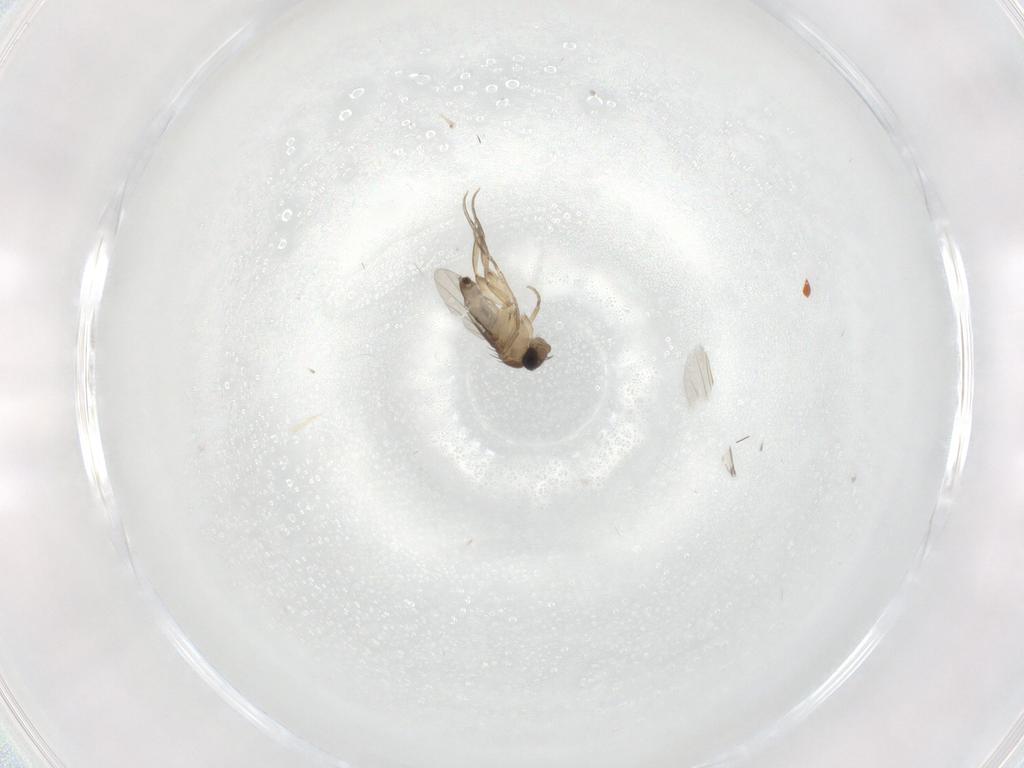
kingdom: Animalia
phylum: Arthropoda
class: Insecta
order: Diptera
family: Phoridae
